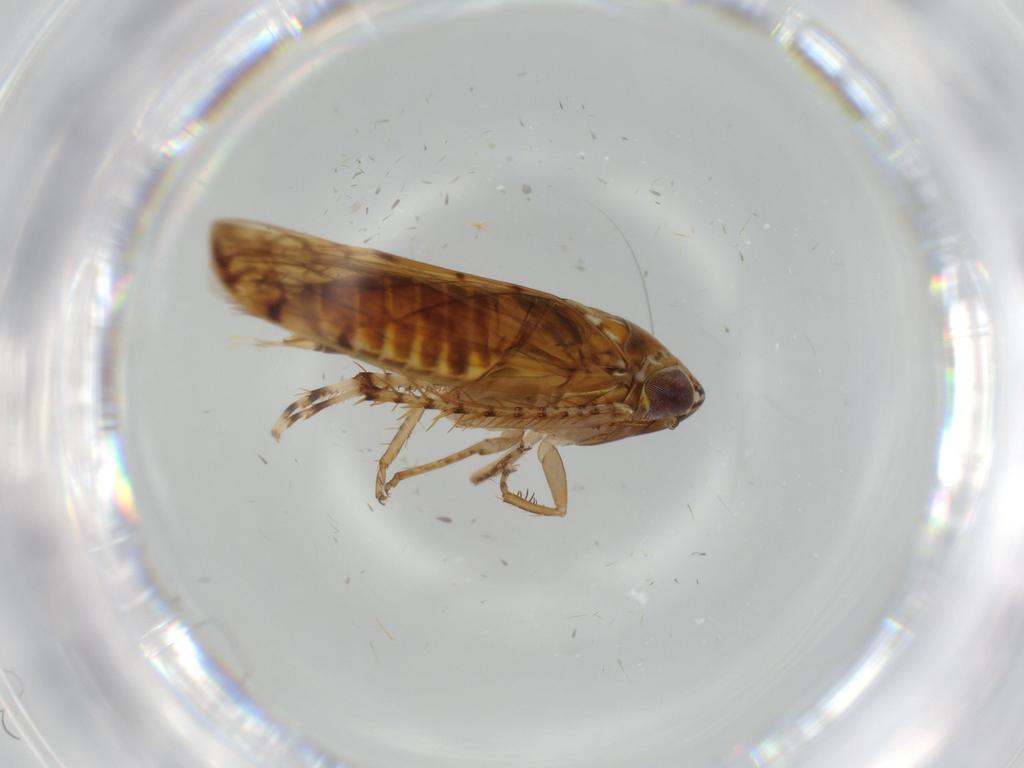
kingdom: Animalia
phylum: Arthropoda
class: Insecta
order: Hemiptera
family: Cicadellidae
